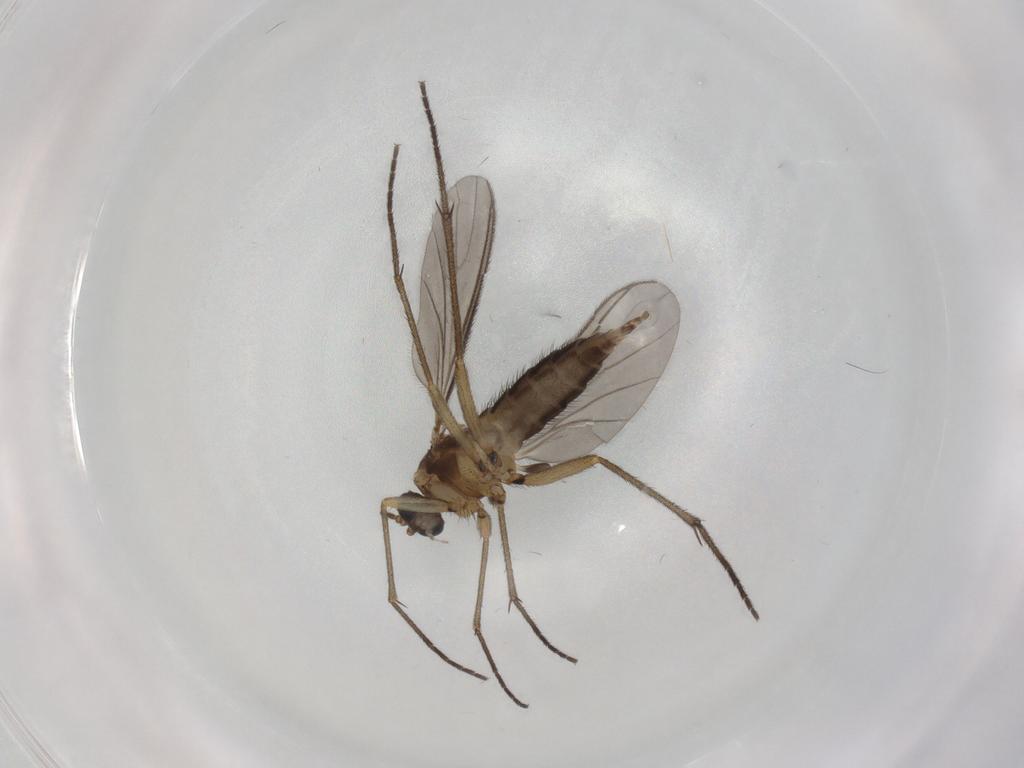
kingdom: Animalia
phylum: Arthropoda
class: Insecta
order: Diptera
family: Sciaridae
